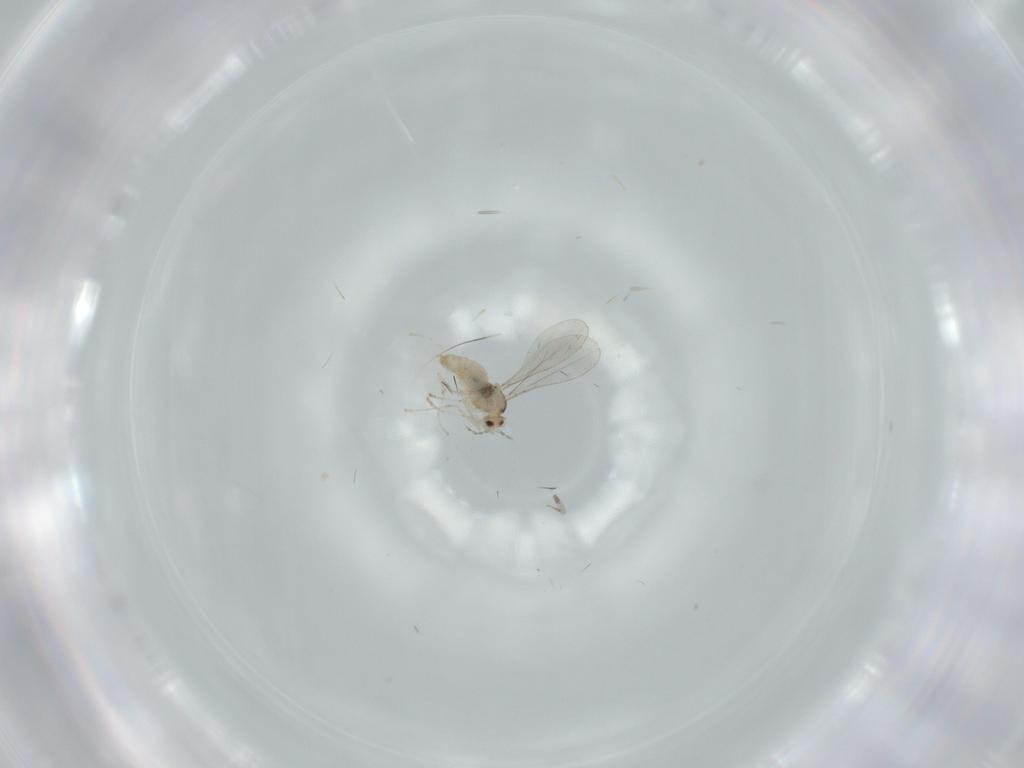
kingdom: Animalia
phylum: Arthropoda
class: Insecta
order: Diptera
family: Cecidomyiidae
